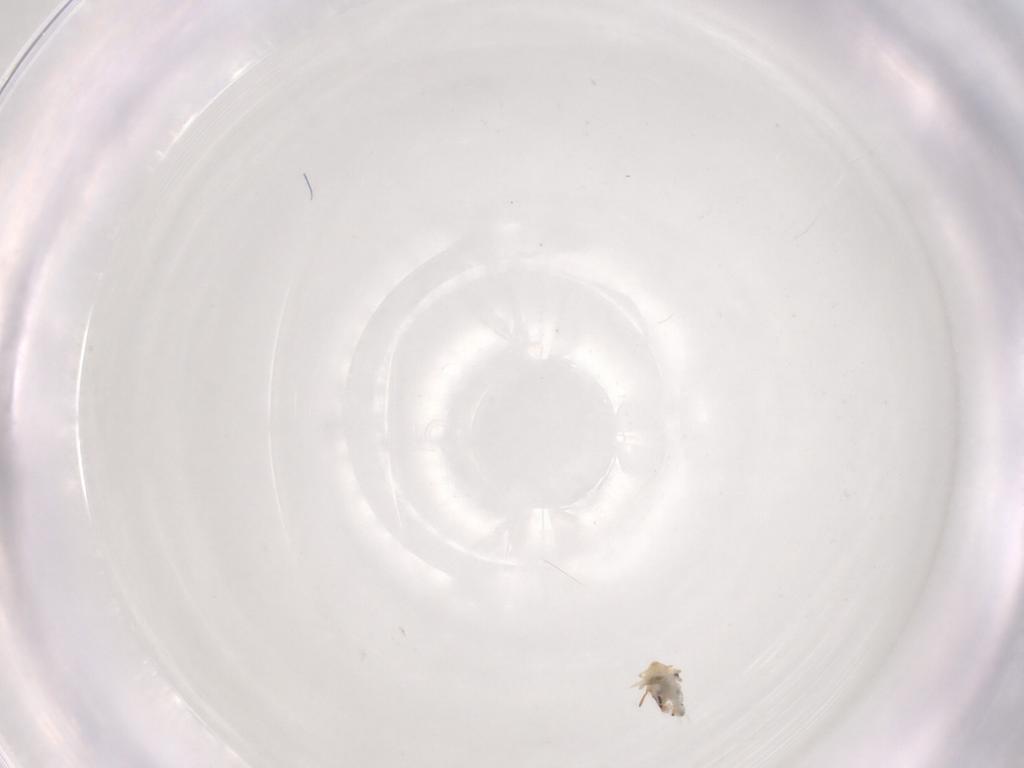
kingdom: Animalia
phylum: Arthropoda
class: Collembola
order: Symphypleona
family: Bourletiellidae
